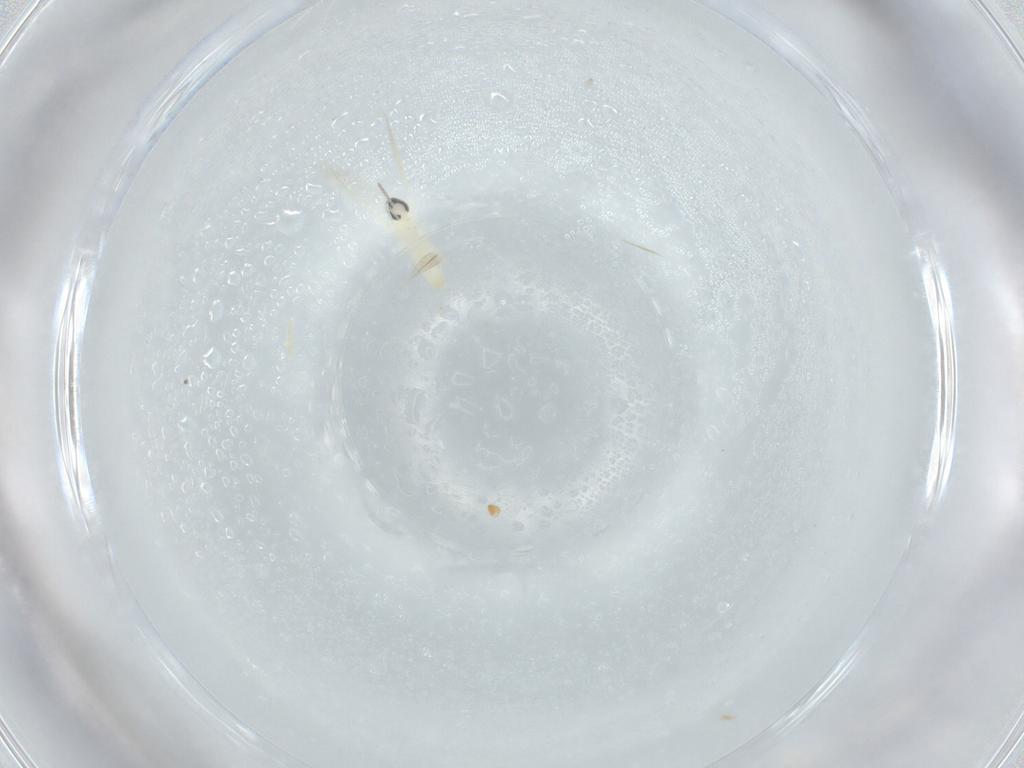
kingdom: Animalia
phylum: Arthropoda
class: Insecta
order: Diptera
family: Cecidomyiidae
